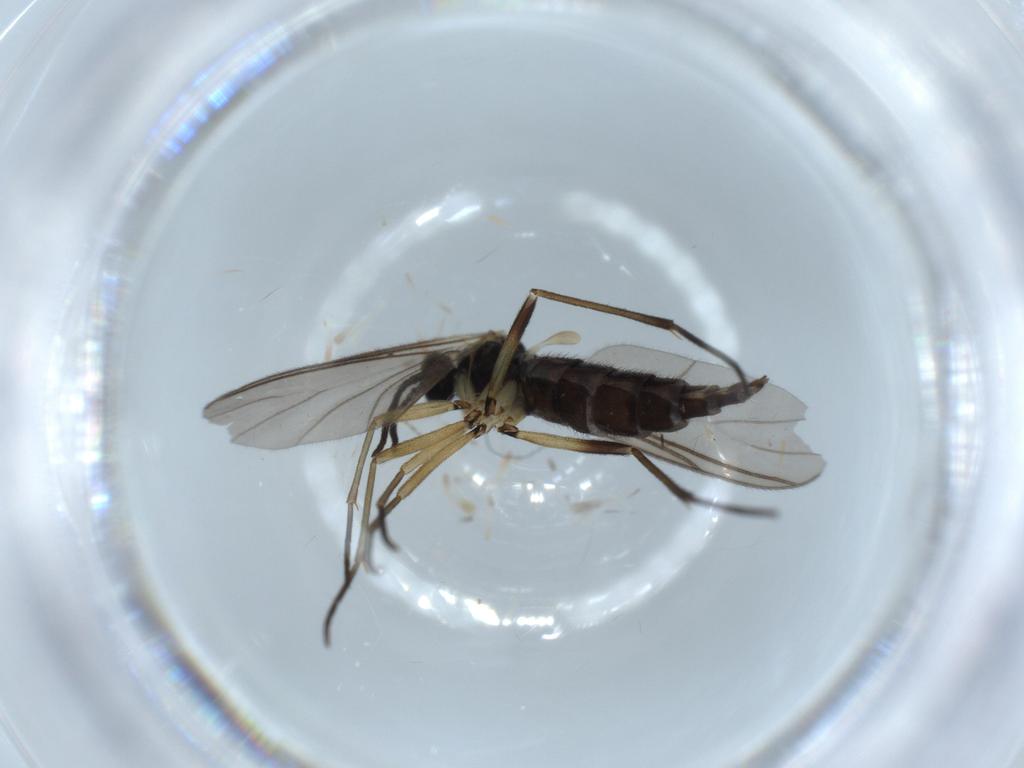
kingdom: Animalia
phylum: Arthropoda
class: Insecta
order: Diptera
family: Sciaridae
